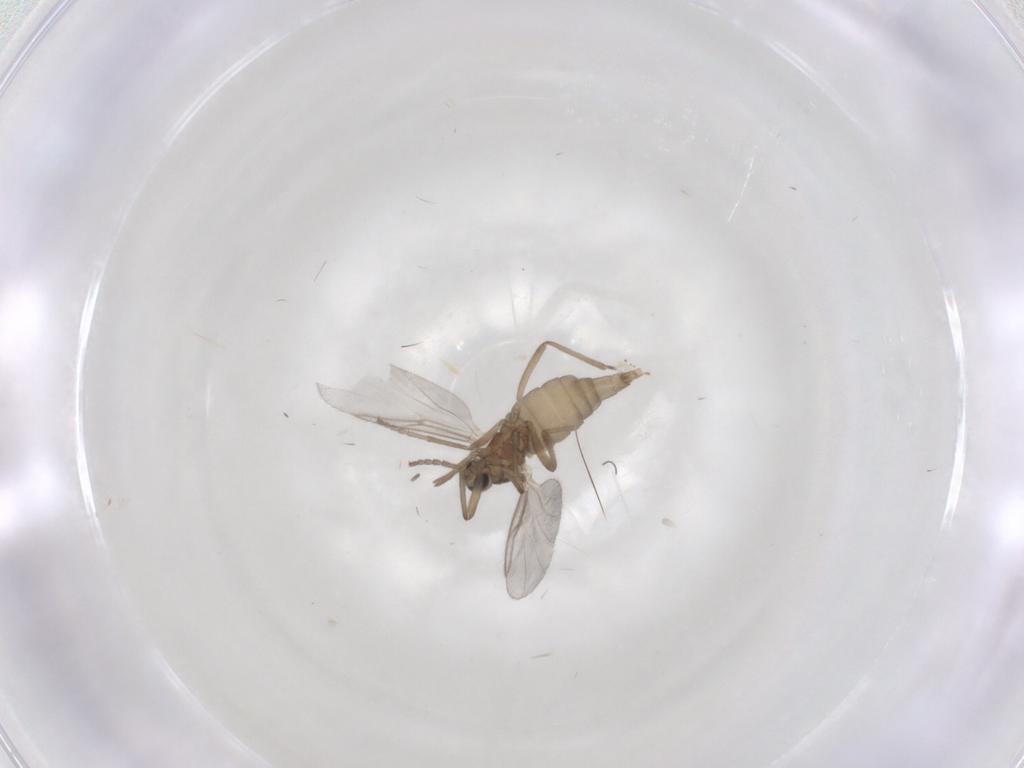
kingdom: Animalia
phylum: Arthropoda
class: Insecta
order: Diptera
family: Cecidomyiidae
